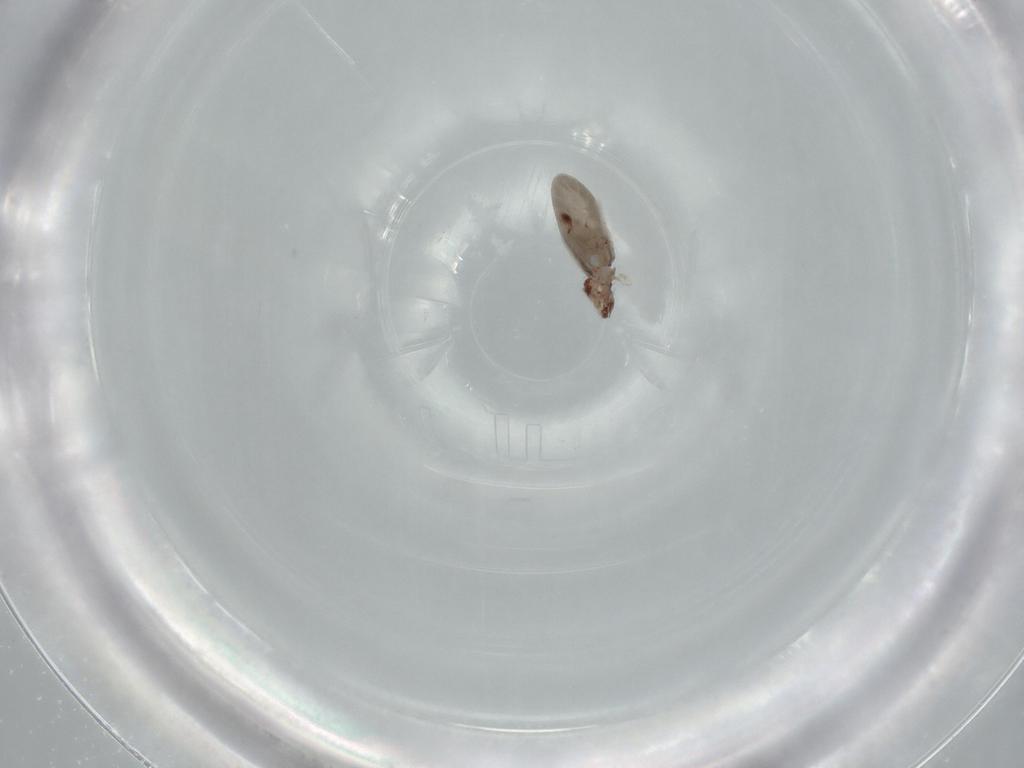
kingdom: Animalia
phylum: Arthropoda
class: Insecta
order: Psocodea
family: Psocidae
